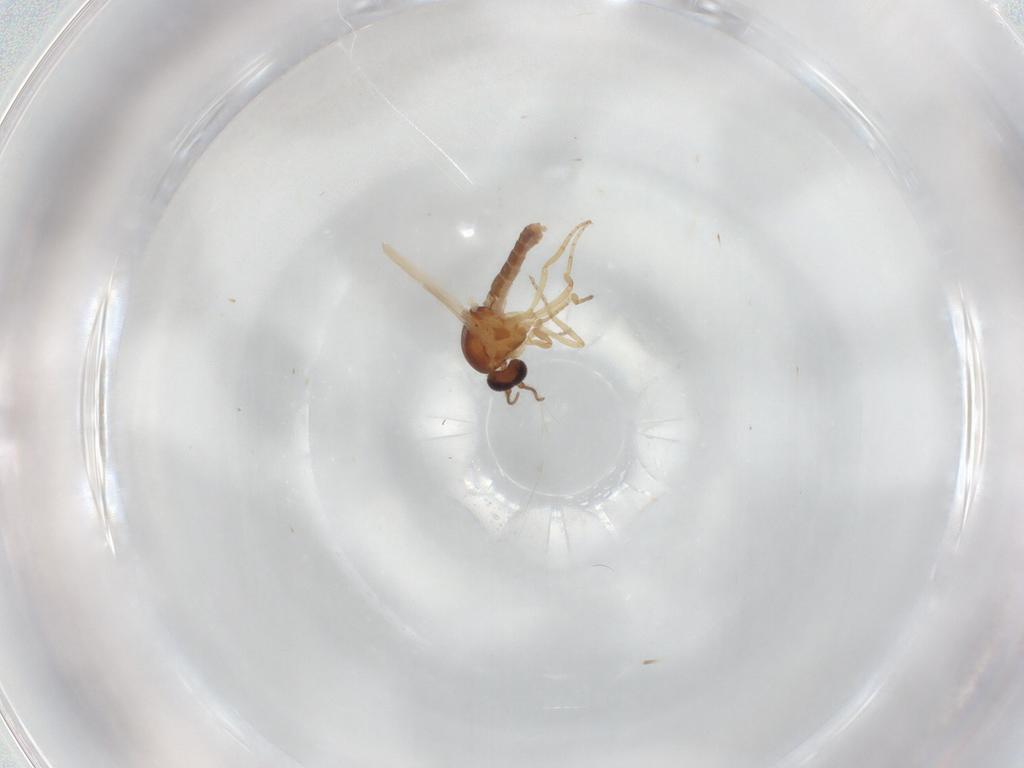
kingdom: Animalia
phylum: Arthropoda
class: Insecta
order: Diptera
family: Ceratopogonidae
